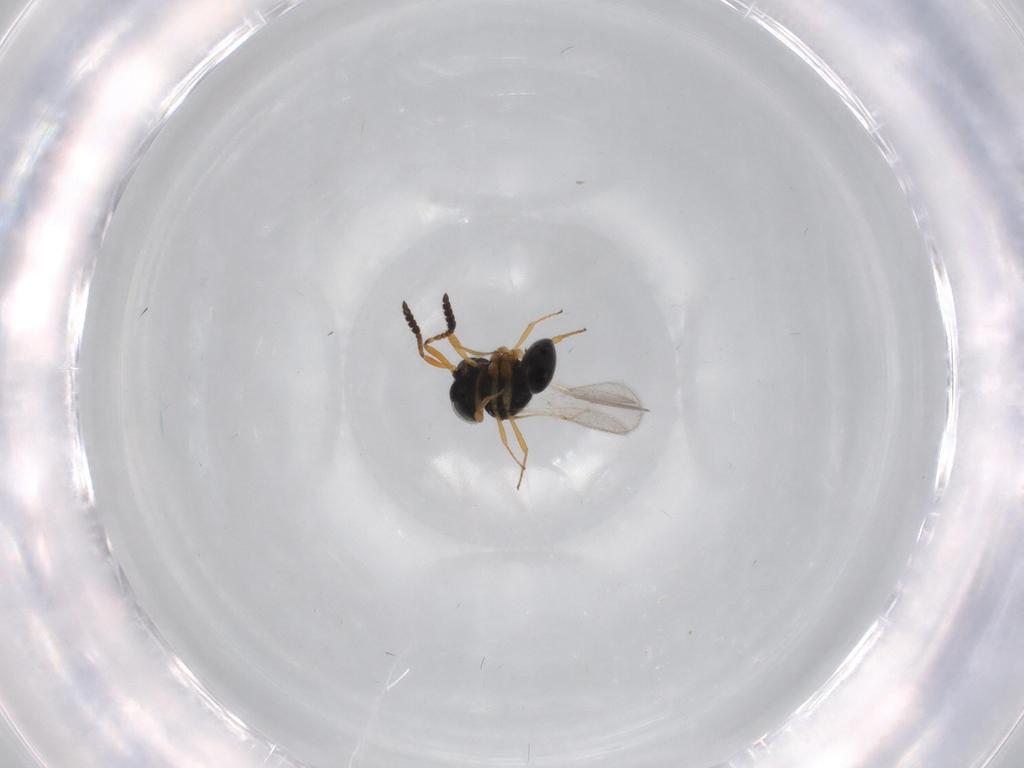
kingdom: Animalia
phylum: Arthropoda
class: Insecta
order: Hymenoptera
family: Scelionidae
